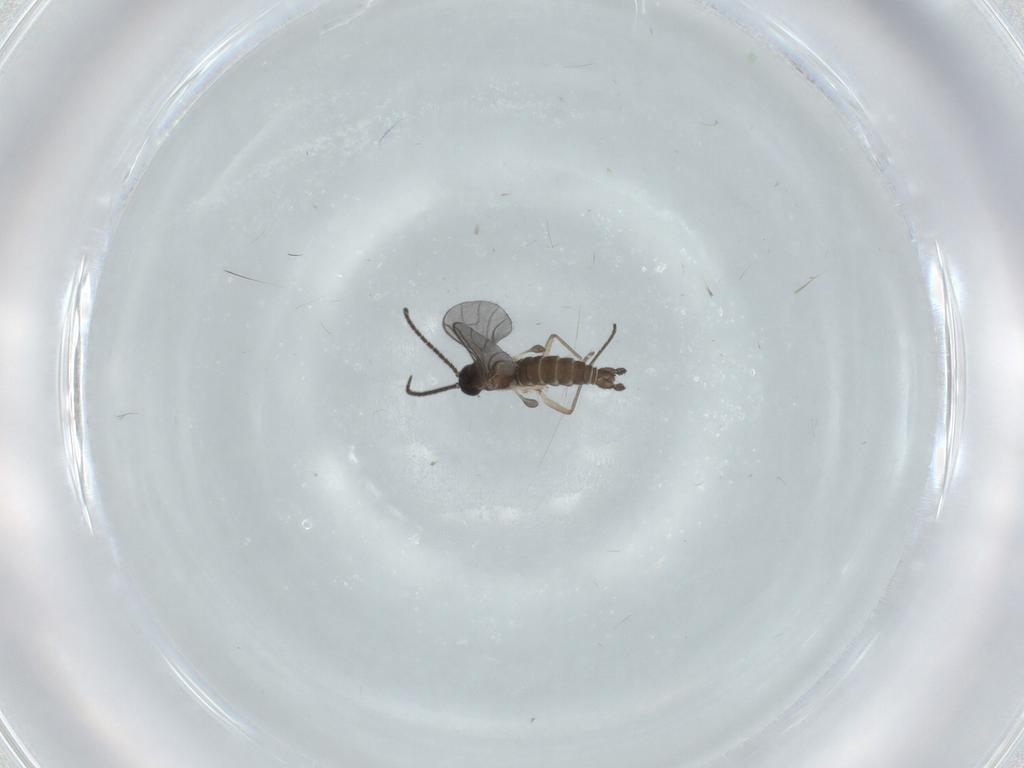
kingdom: Animalia
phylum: Arthropoda
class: Insecta
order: Diptera
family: Sciaridae
